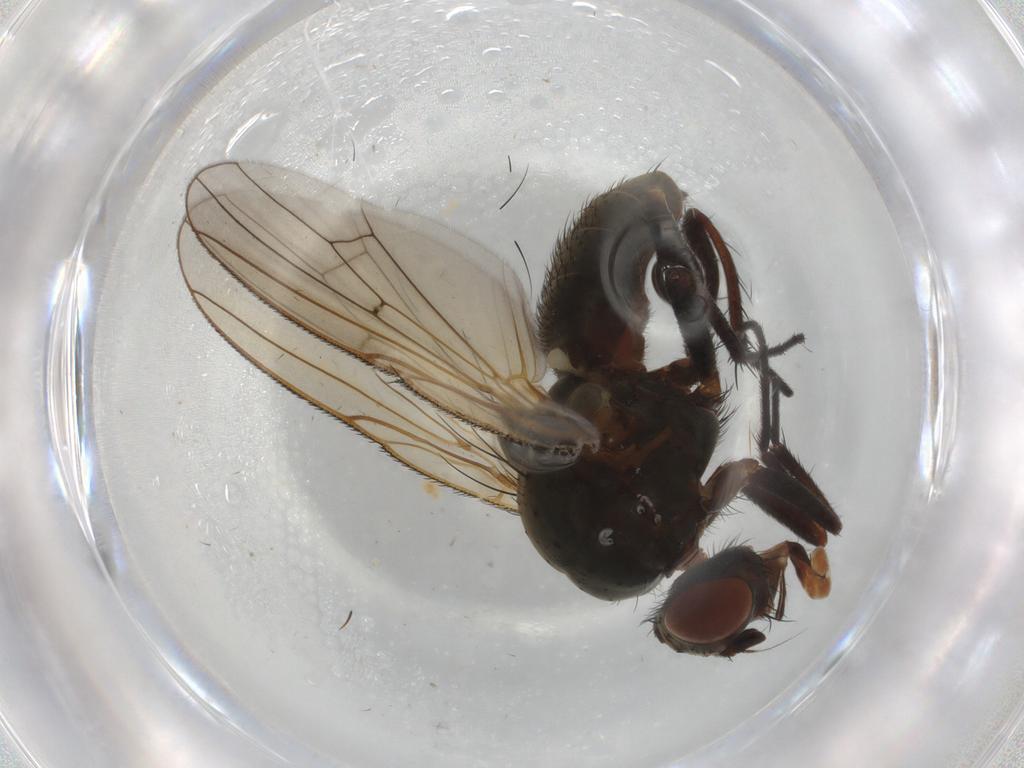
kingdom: Animalia
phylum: Arthropoda
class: Insecta
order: Diptera
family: Anthomyiidae
